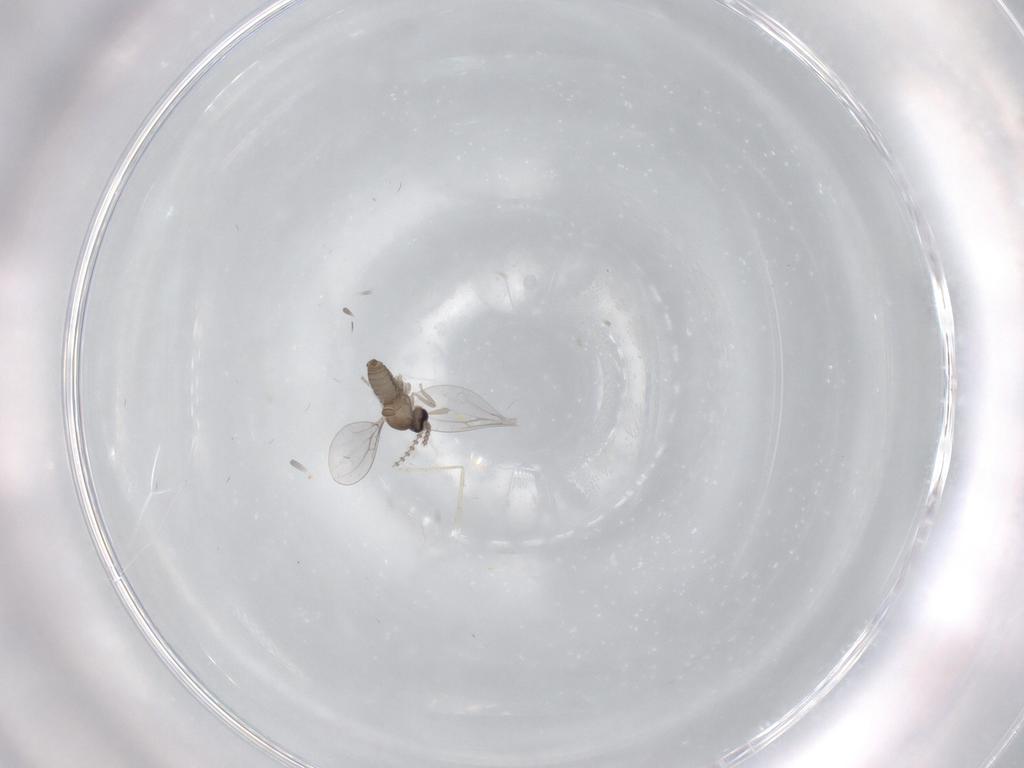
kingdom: Animalia
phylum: Arthropoda
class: Insecta
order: Diptera
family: Cecidomyiidae
